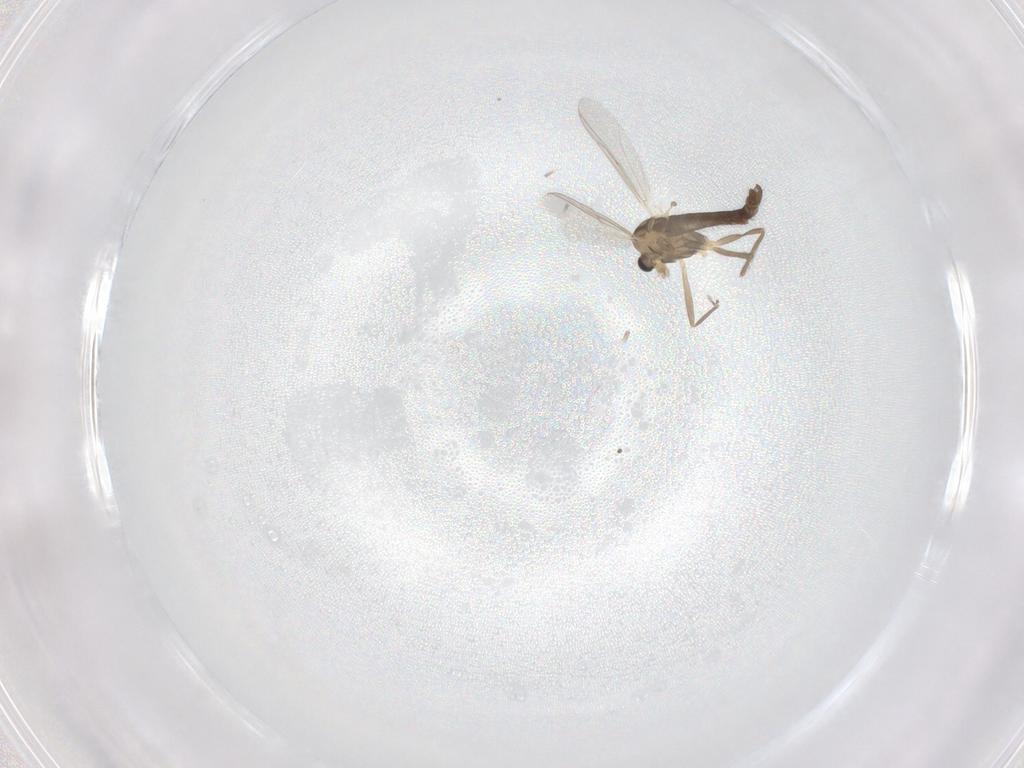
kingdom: Animalia
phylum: Arthropoda
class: Insecta
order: Diptera
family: Chironomidae
